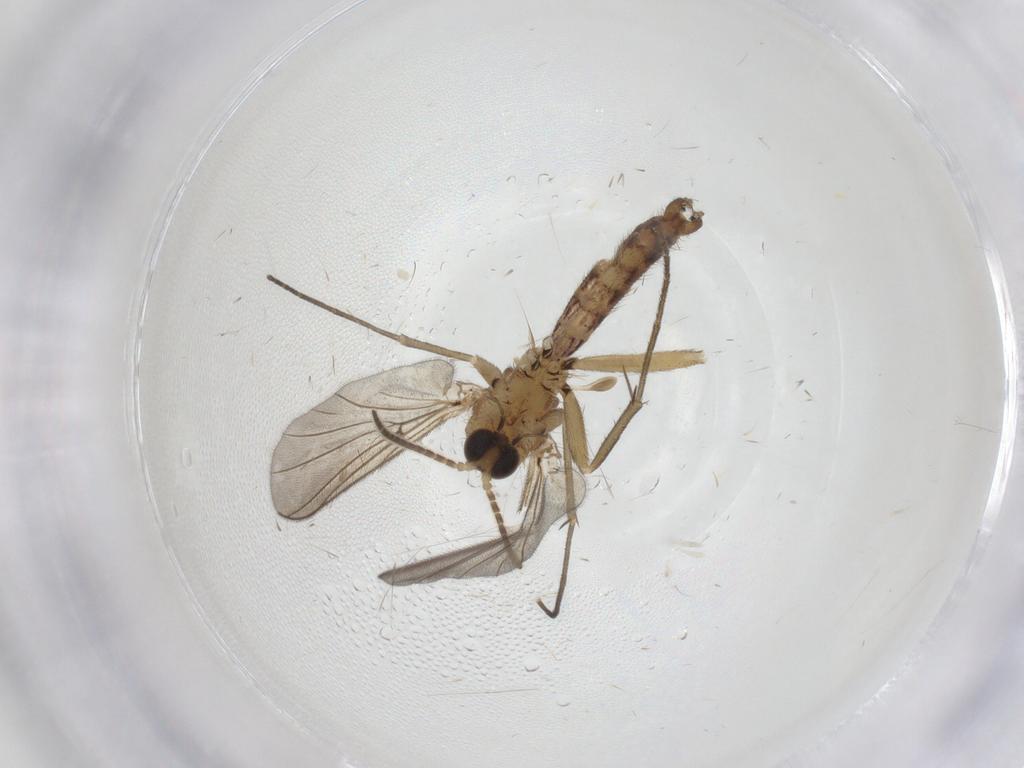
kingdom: Animalia
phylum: Arthropoda
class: Insecta
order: Diptera
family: Mycetophilidae
